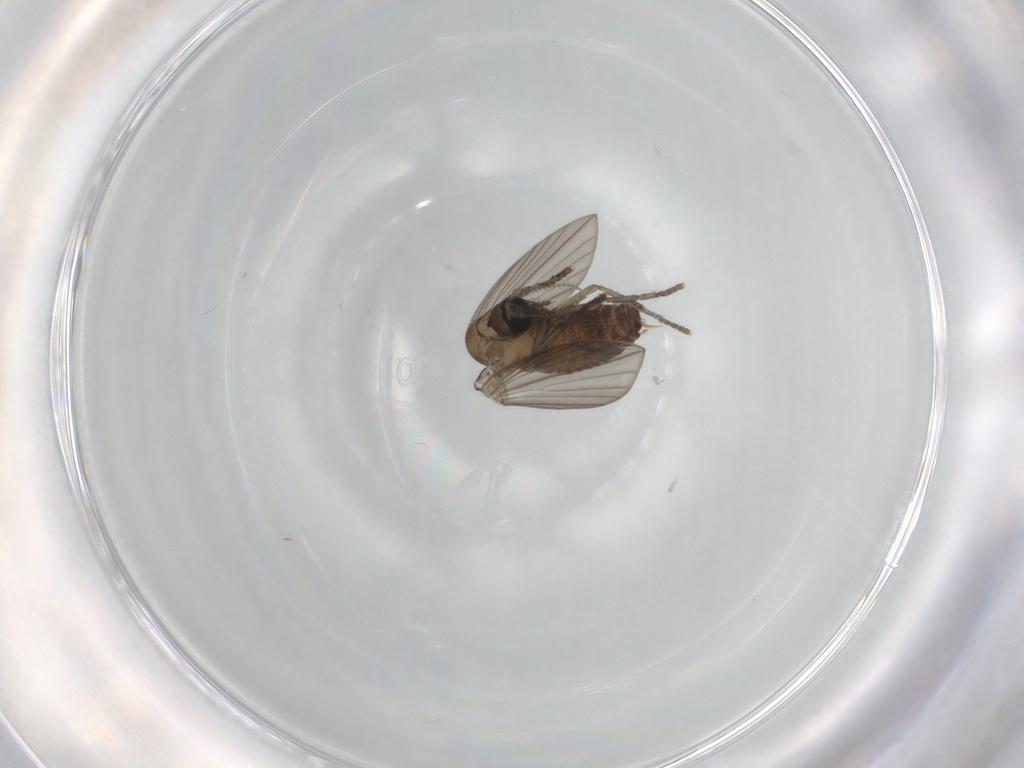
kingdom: Animalia
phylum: Arthropoda
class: Insecta
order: Diptera
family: Psychodidae
